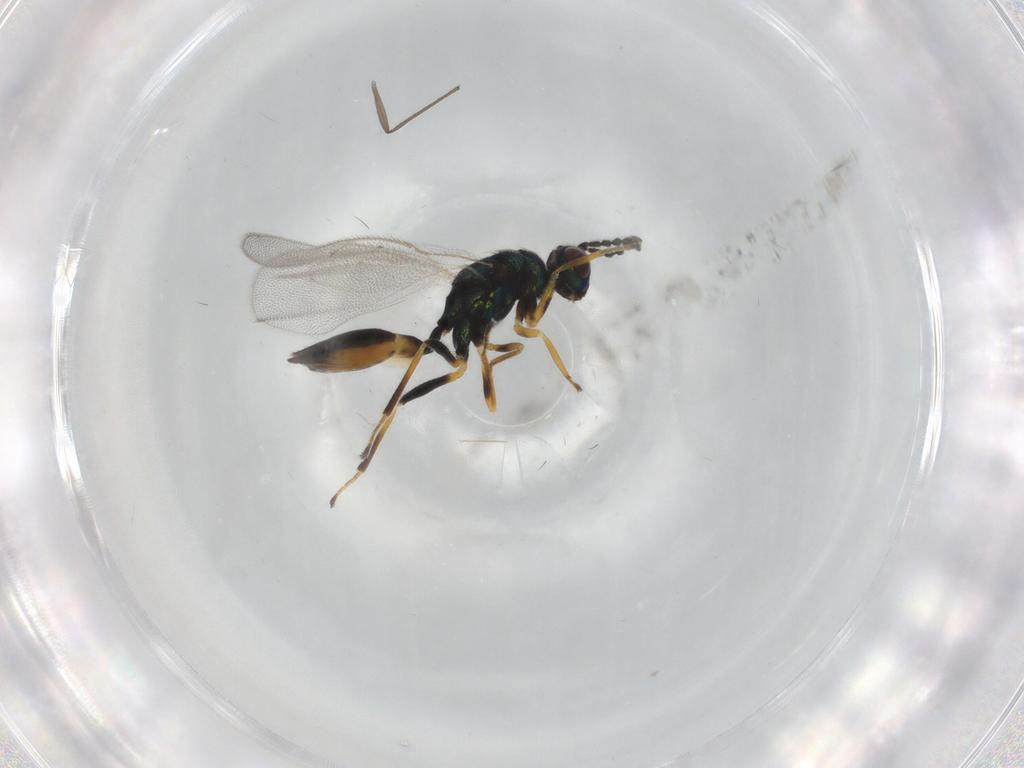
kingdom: Animalia
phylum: Arthropoda
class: Insecta
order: Hymenoptera
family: Eulophidae
